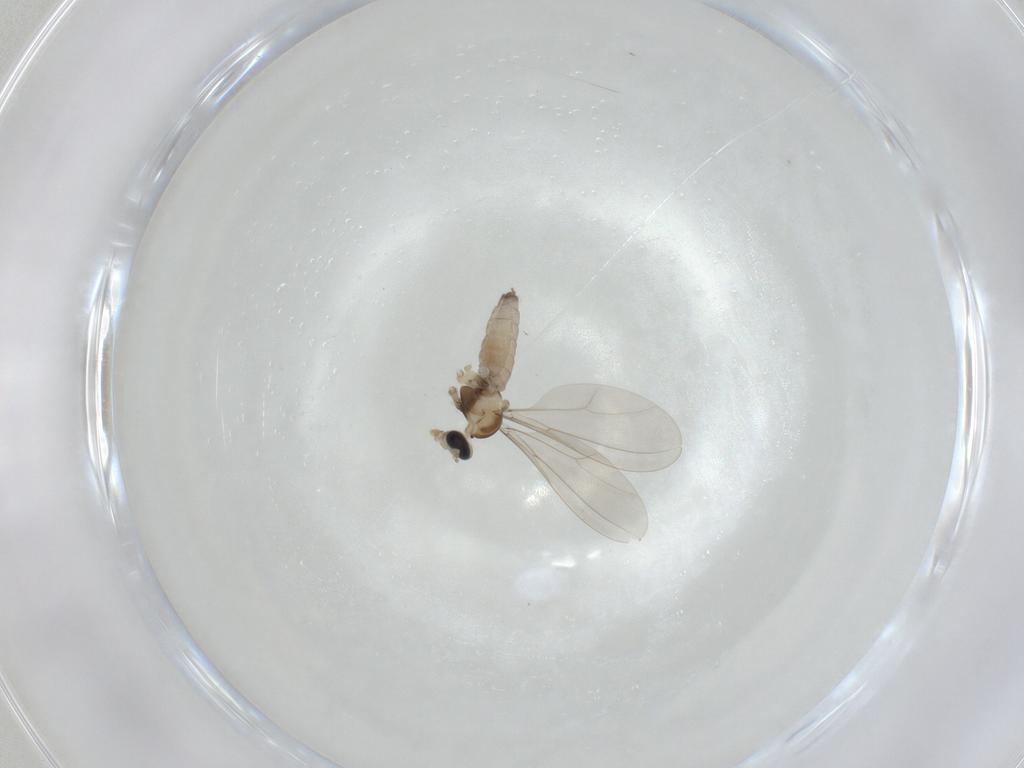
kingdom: Animalia
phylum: Arthropoda
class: Insecta
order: Diptera
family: Cecidomyiidae
